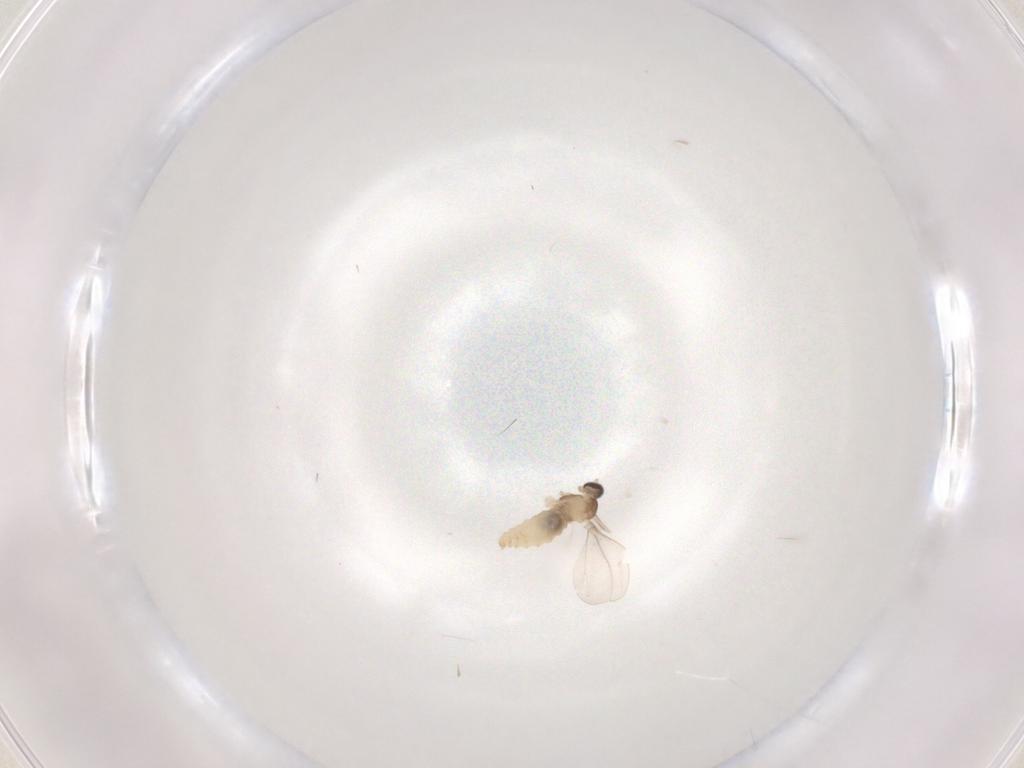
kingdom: Animalia
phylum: Arthropoda
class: Insecta
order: Diptera
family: Cecidomyiidae
